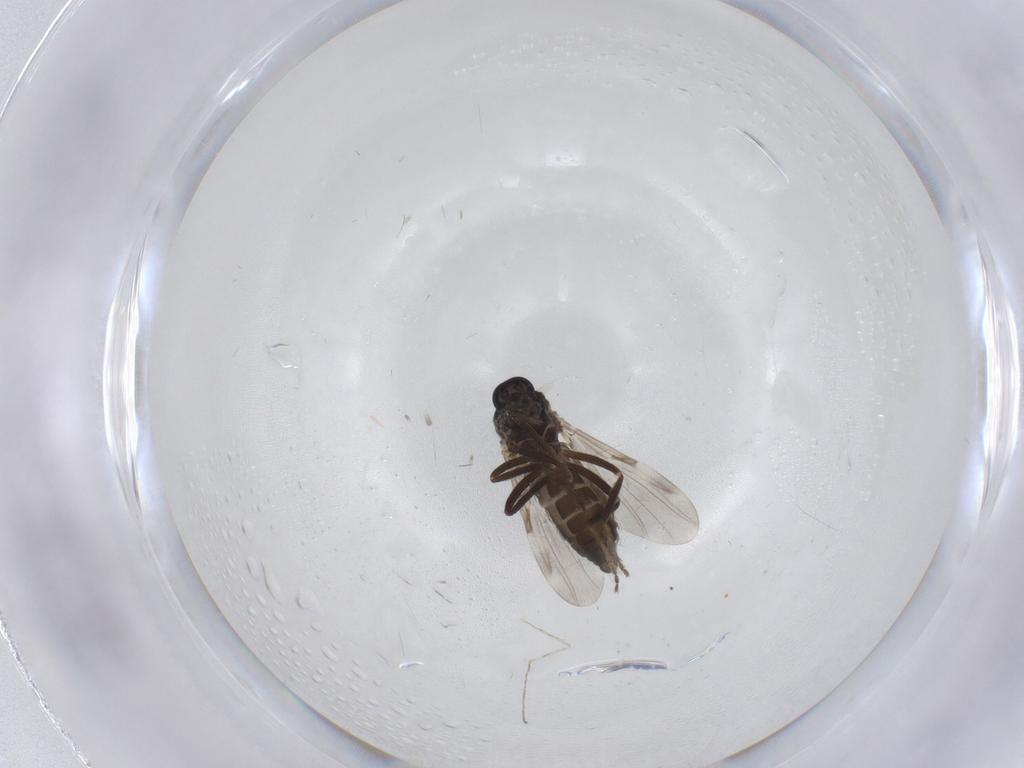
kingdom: Animalia
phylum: Arthropoda
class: Insecta
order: Diptera
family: Ceratopogonidae
